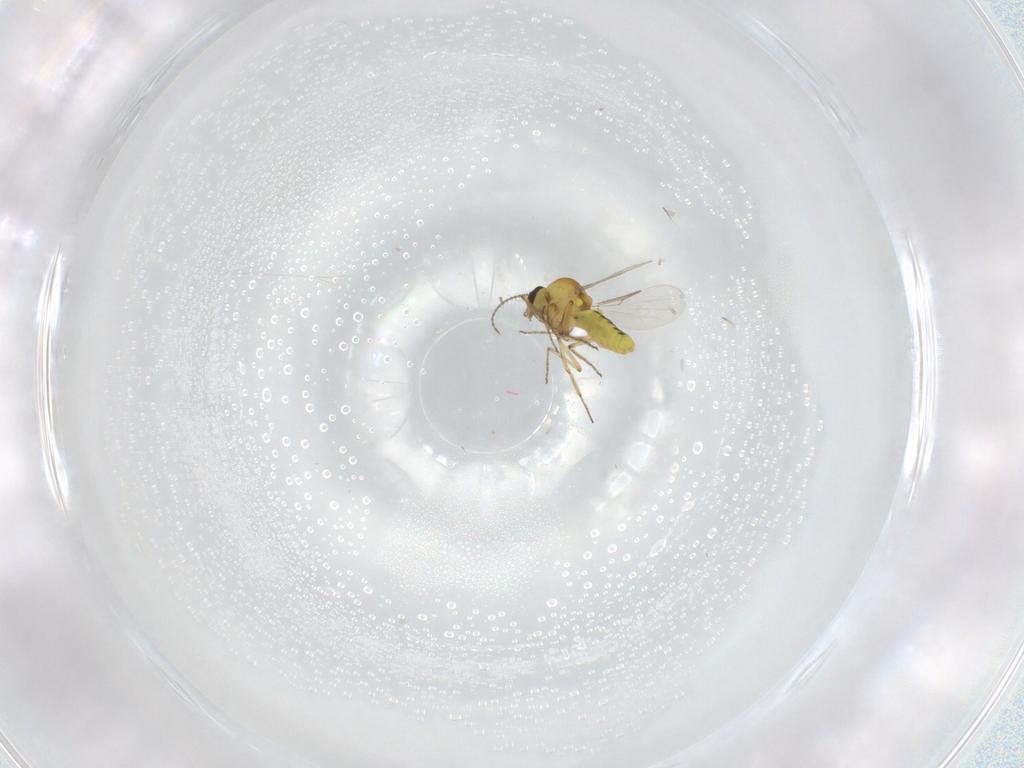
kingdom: Animalia
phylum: Arthropoda
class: Insecta
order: Diptera
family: Ceratopogonidae
